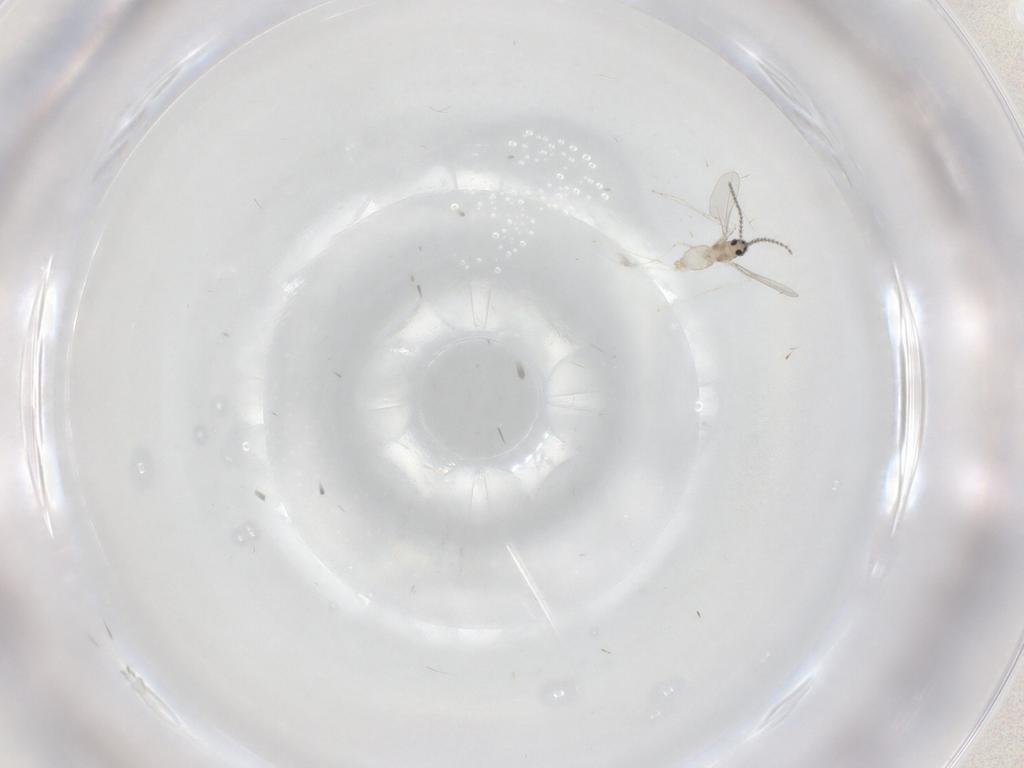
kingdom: Animalia
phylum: Arthropoda
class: Insecta
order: Diptera
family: Cecidomyiidae
